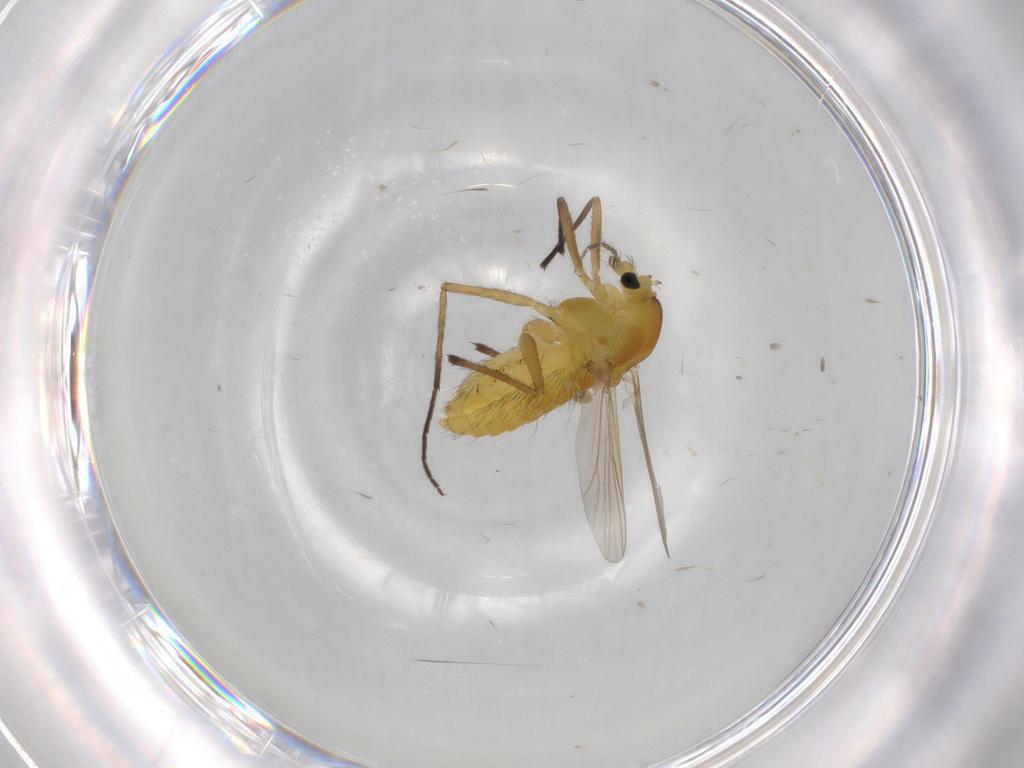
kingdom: Animalia
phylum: Arthropoda
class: Insecta
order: Diptera
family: Chironomidae
